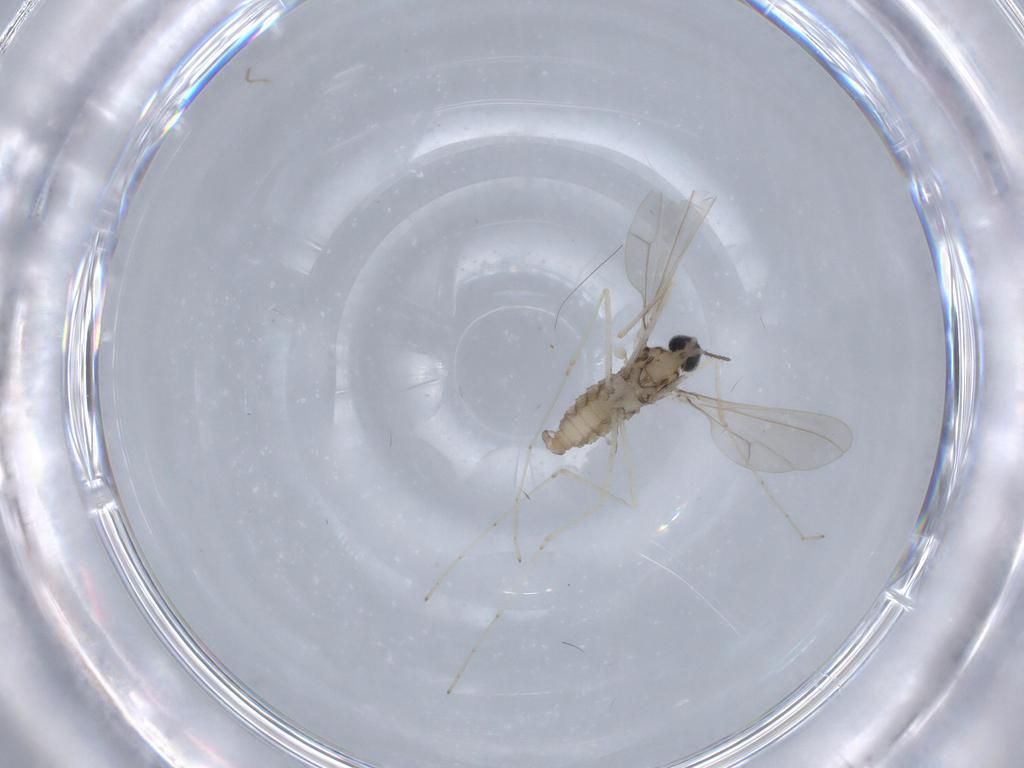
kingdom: Animalia
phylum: Arthropoda
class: Insecta
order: Diptera
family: Cecidomyiidae
